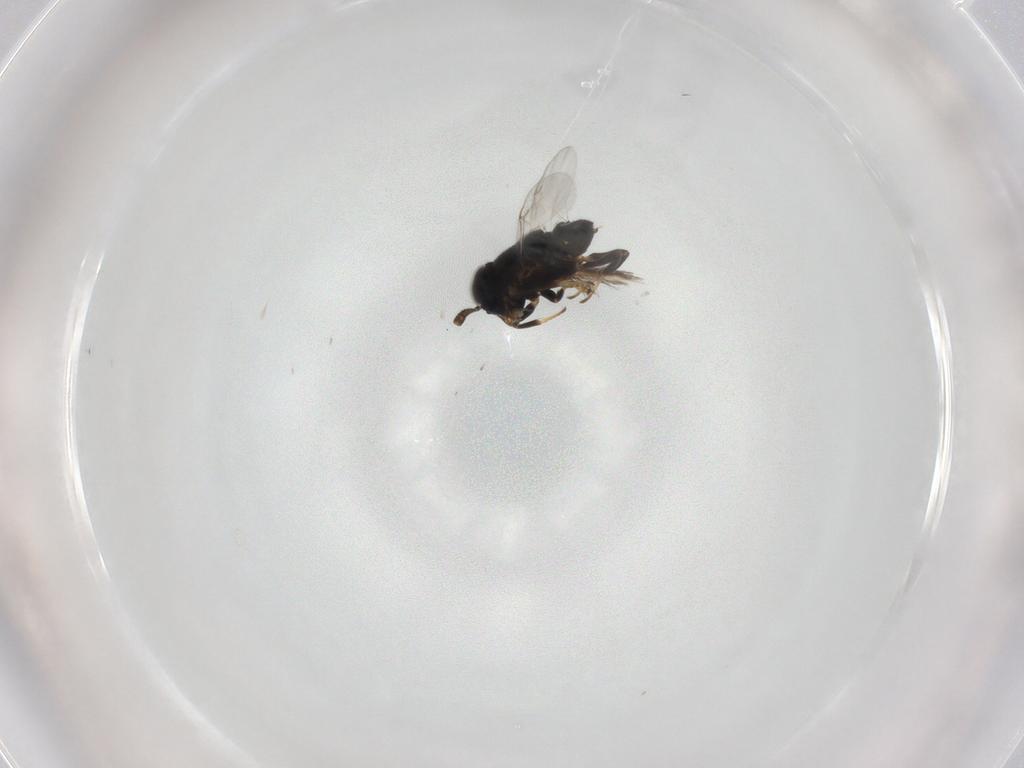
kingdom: Animalia
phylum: Arthropoda
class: Insecta
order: Hymenoptera
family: Encyrtidae
